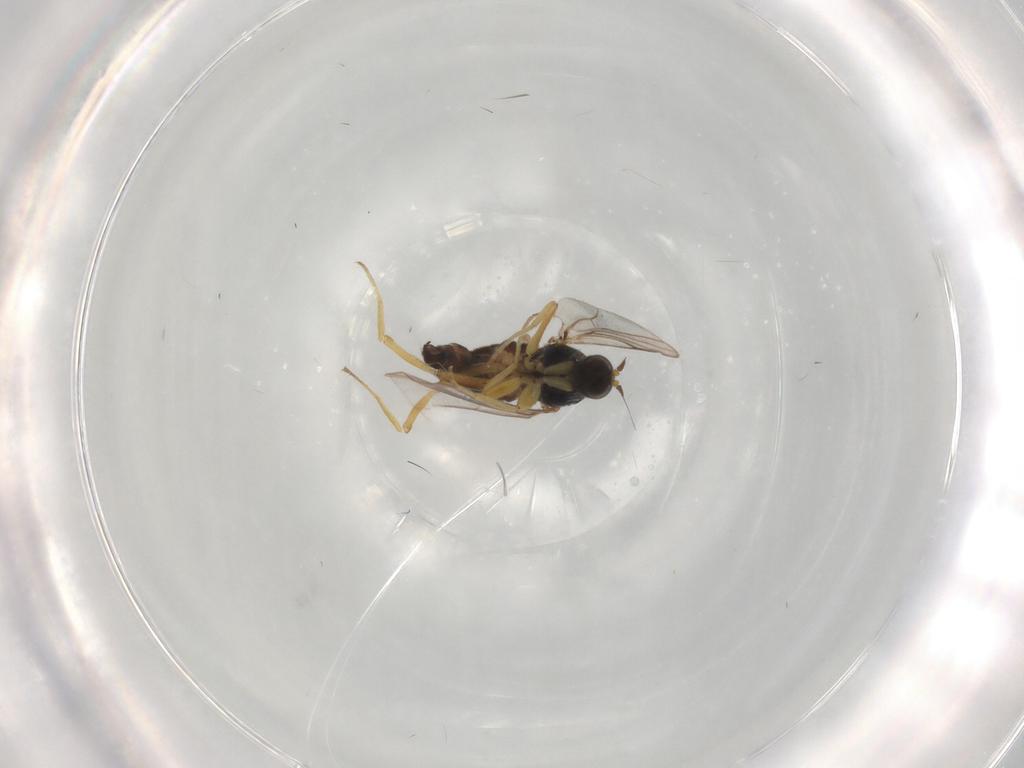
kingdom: Animalia
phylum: Arthropoda
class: Insecta
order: Diptera
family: Hybotidae
